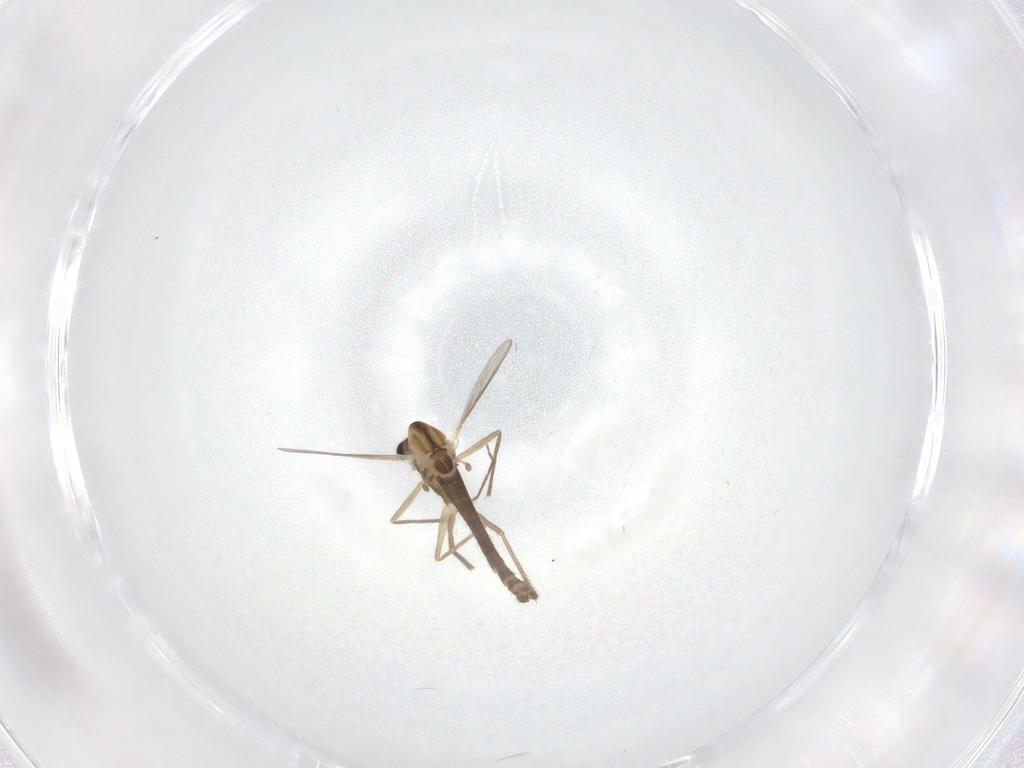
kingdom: Animalia
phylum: Arthropoda
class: Insecta
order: Diptera
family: Chironomidae
